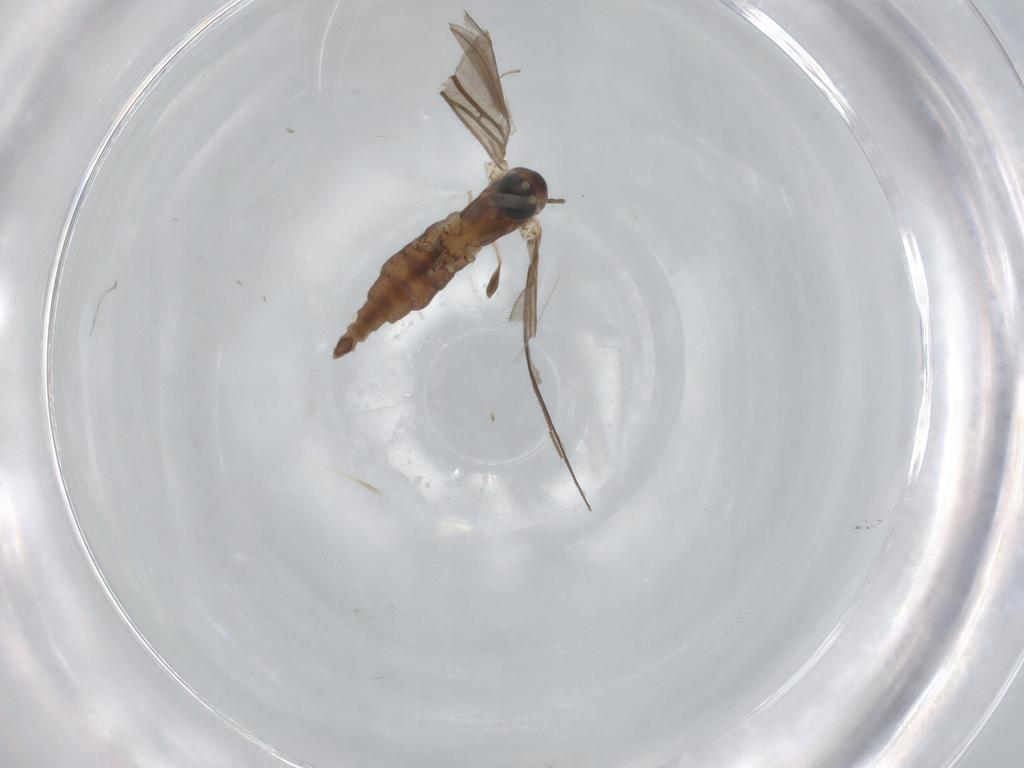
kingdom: Animalia
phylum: Arthropoda
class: Insecta
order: Diptera
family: Sciaridae
